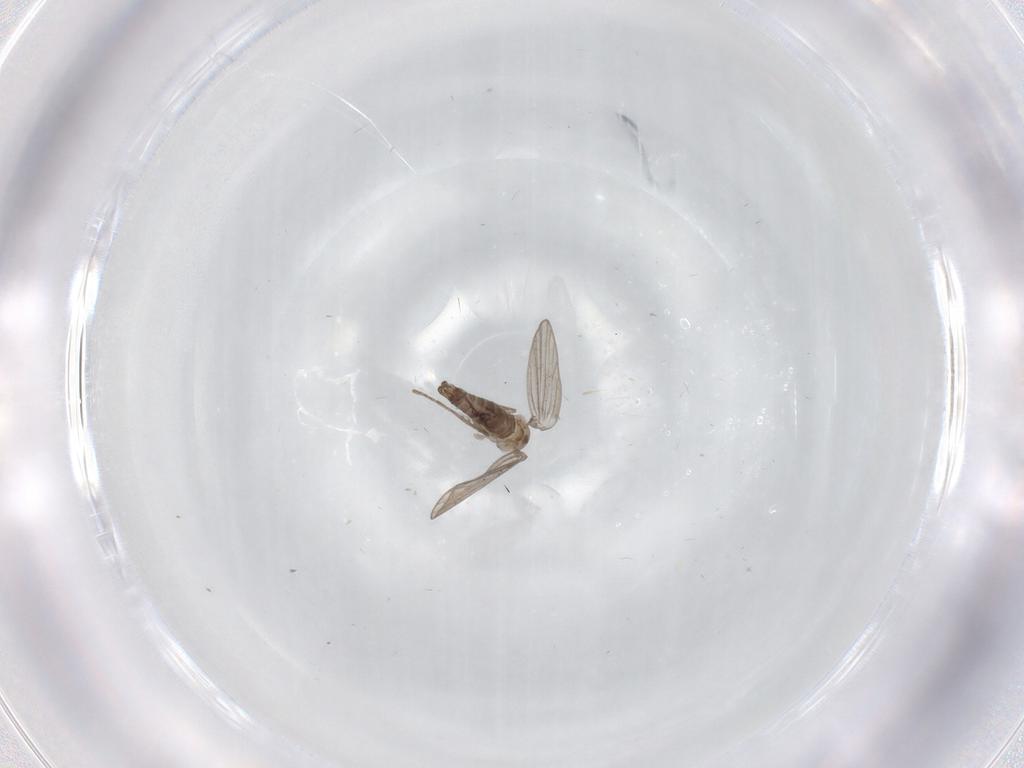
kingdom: Animalia
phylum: Arthropoda
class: Insecta
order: Diptera
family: Psychodidae
